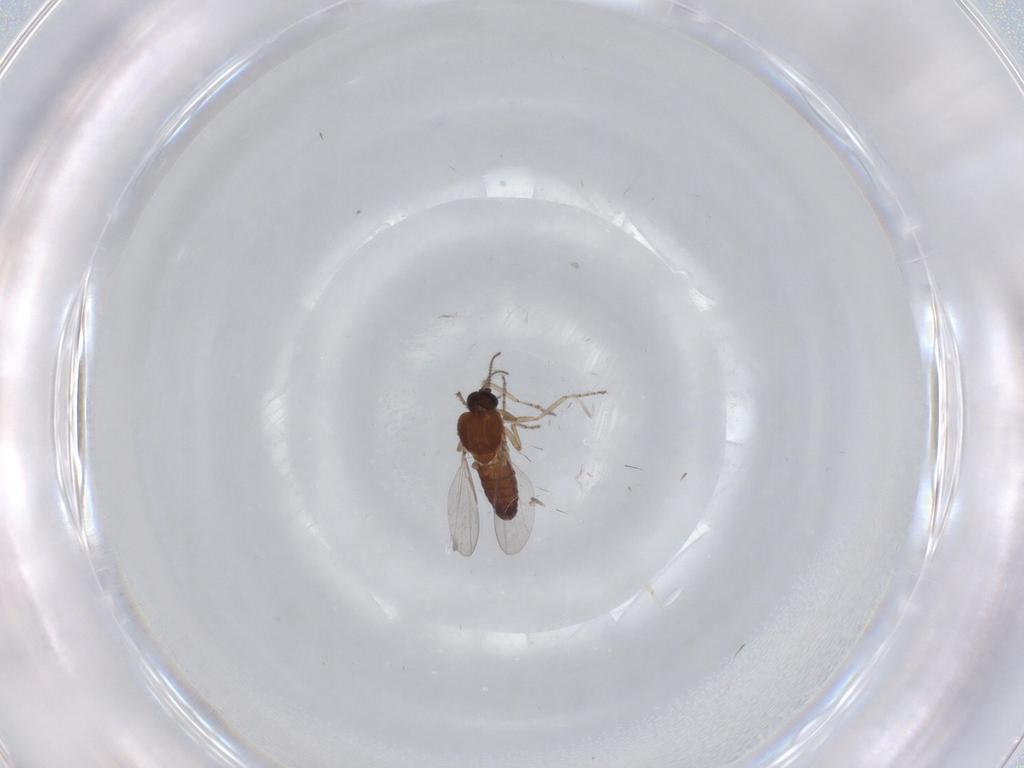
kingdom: Animalia
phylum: Arthropoda
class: Insecta
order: Diptera
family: Ceratopogonidae
